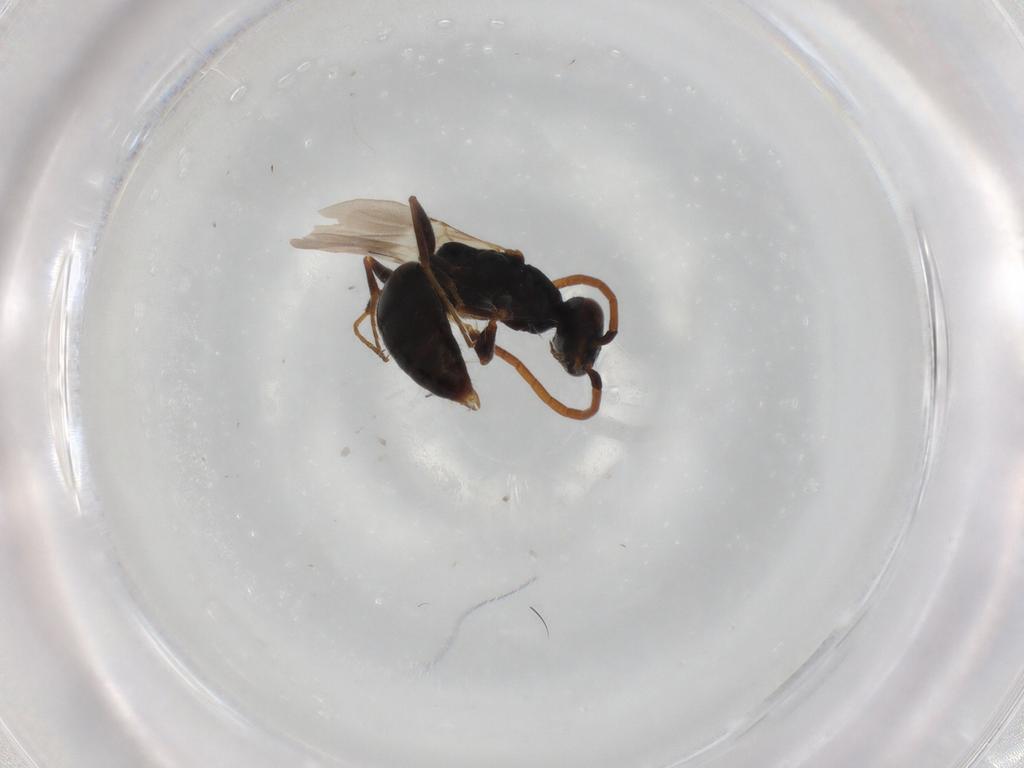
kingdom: Animalia
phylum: Arthropoda
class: Insecta
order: Hymenoptera
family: Bethylidae
